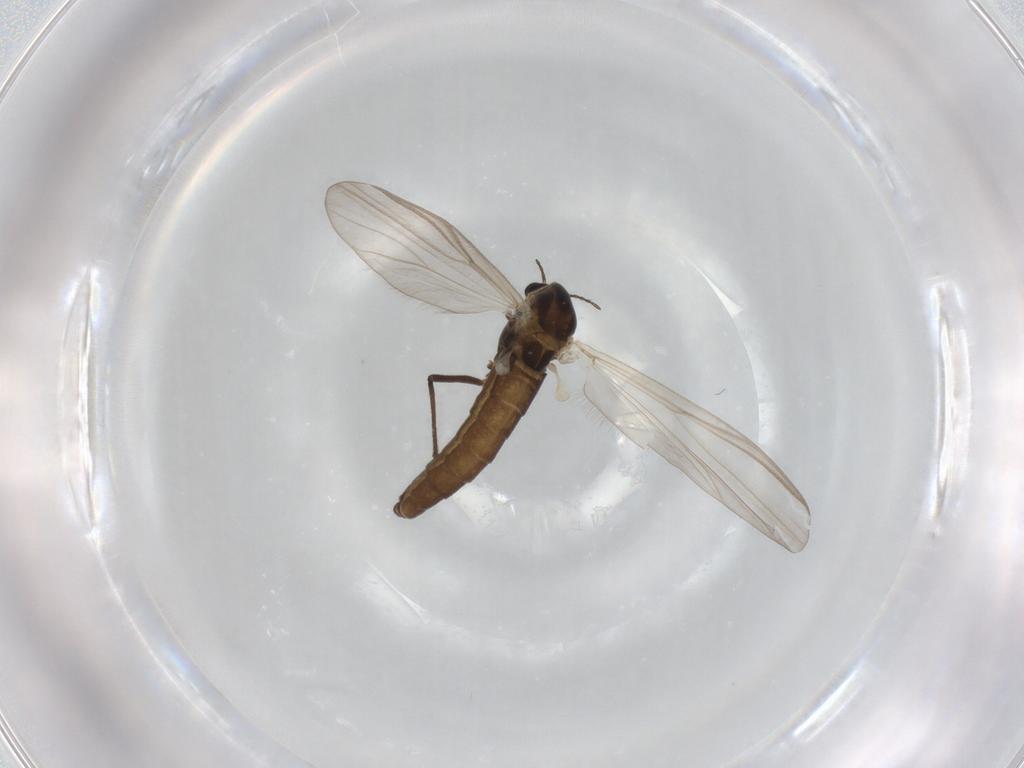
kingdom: Animalia
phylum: Arthropoda
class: Insecta
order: Diptera
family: Chironomidae
